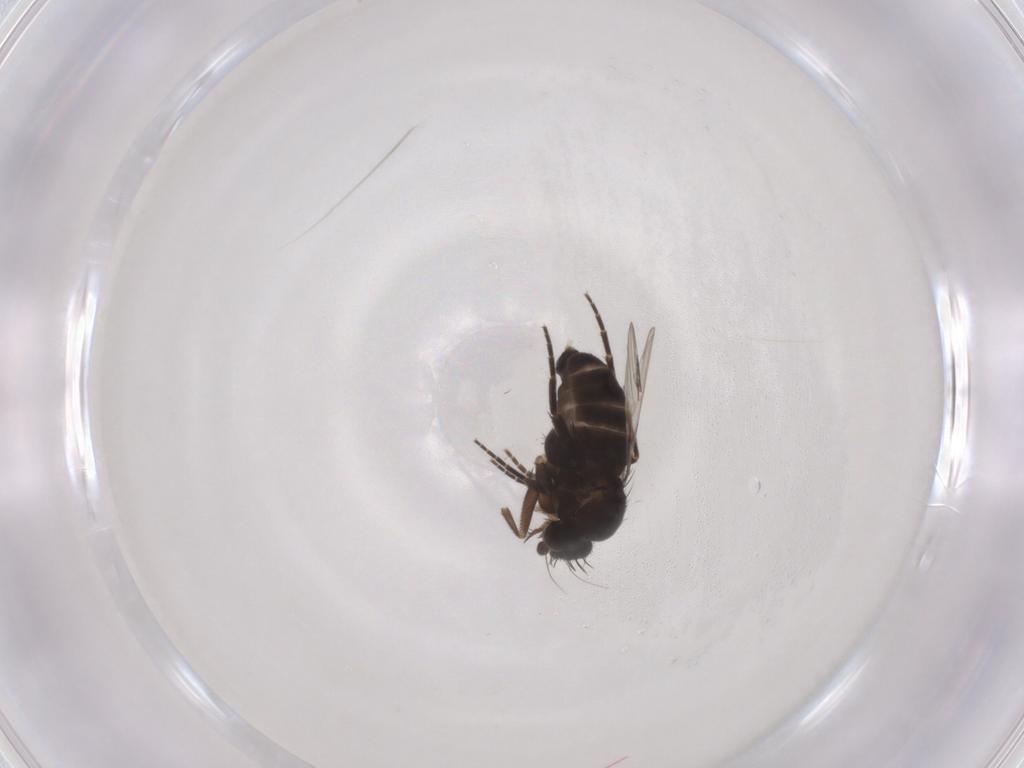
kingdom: Animalia
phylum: Arthropoda
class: Insecta
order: Diptera
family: Phoridae
